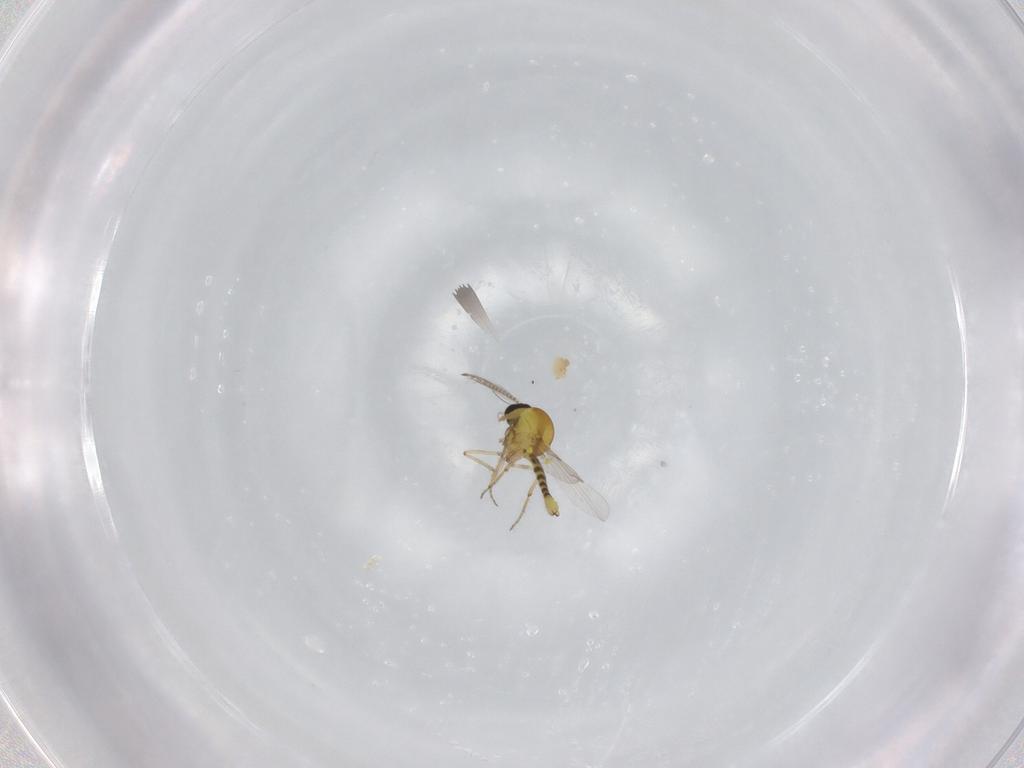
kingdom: Animalia
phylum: Arthropoda
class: Insecta
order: Diptera
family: Ceratopogonidae
